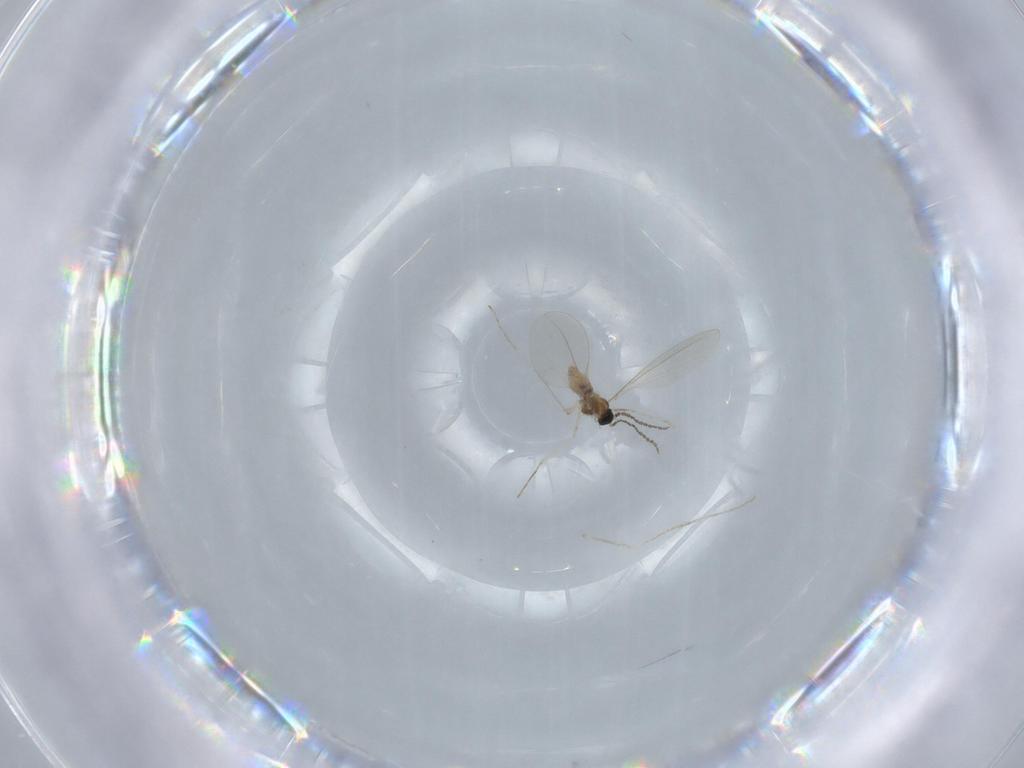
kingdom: Animalia
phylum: Arthropoda
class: Insecta
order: Diptera
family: Cecidomyiidae
